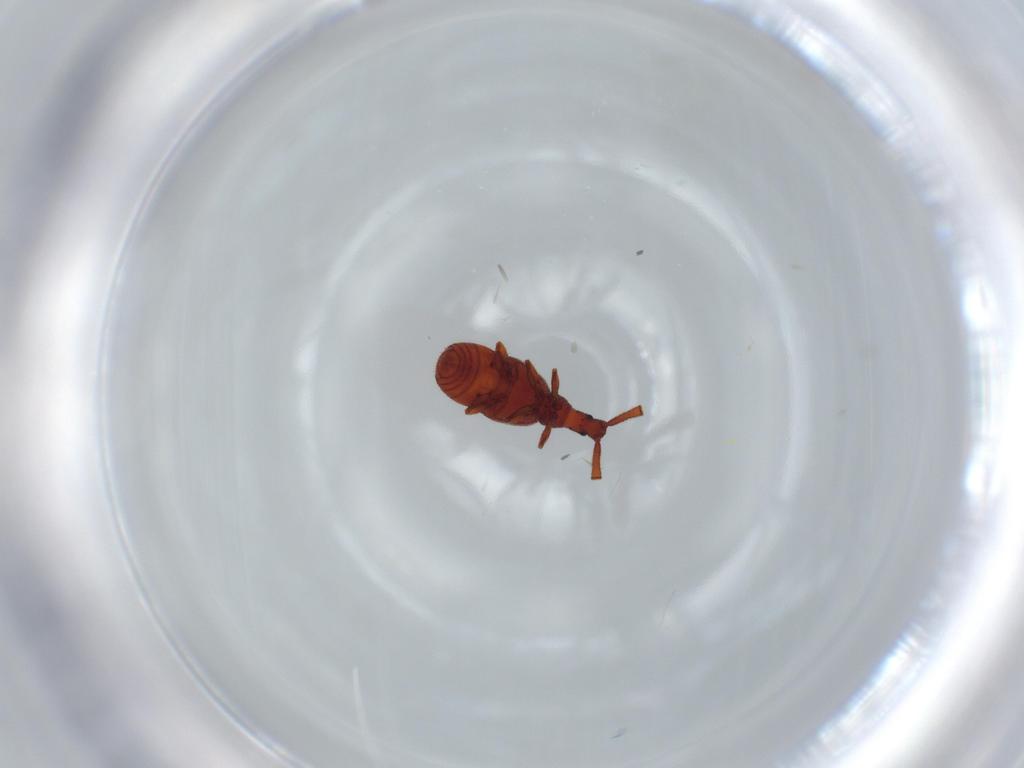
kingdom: Animalia
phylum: Arthropoda
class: Insecta
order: Coleoptera
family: Staphylinidae
